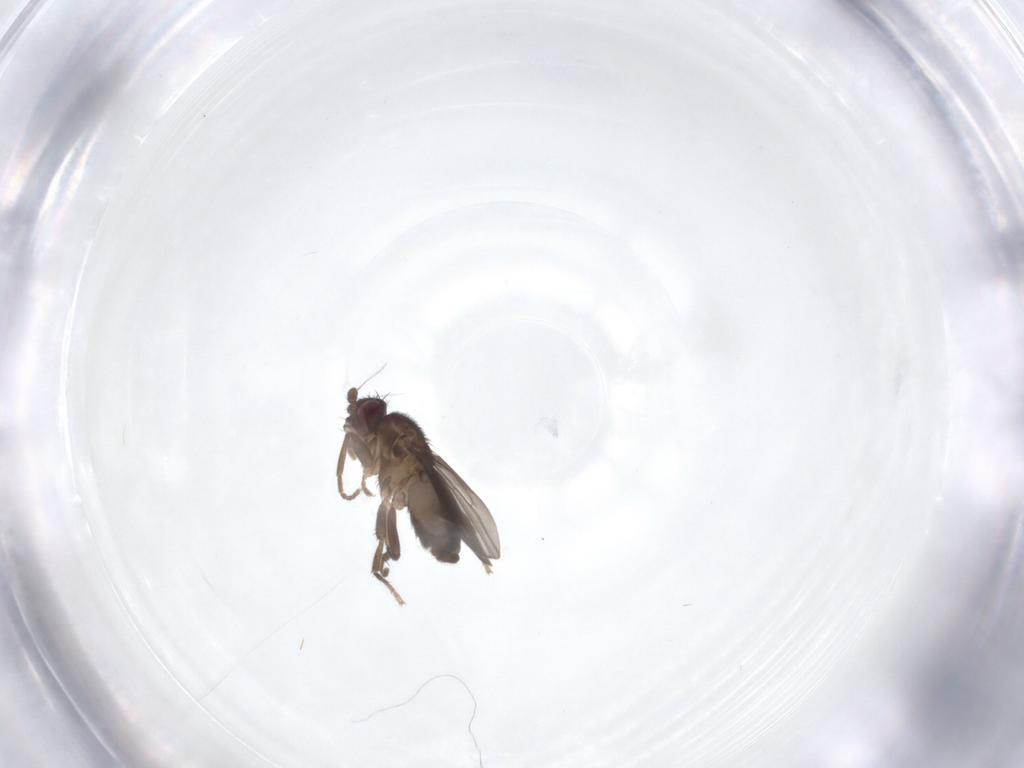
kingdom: Animalia
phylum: Arthropoda
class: Insecta
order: Diptera
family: Sphaeroceridae
